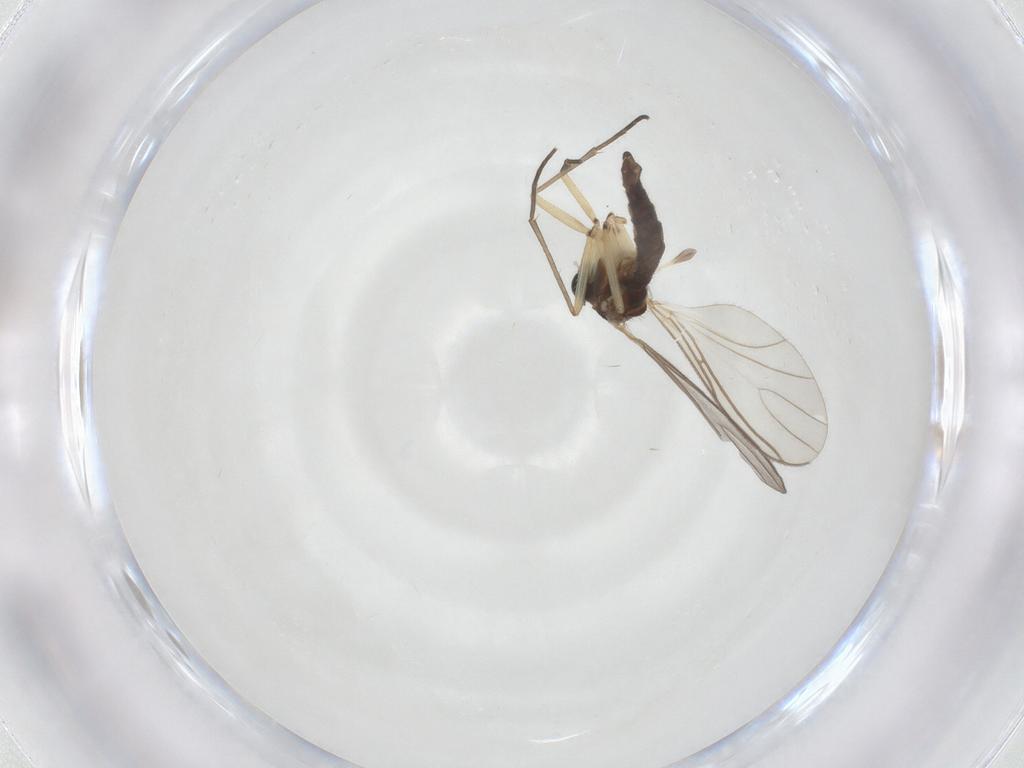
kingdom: Animalia
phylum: Arthropoda
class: Insecta
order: Diptera
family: Sciaridae
